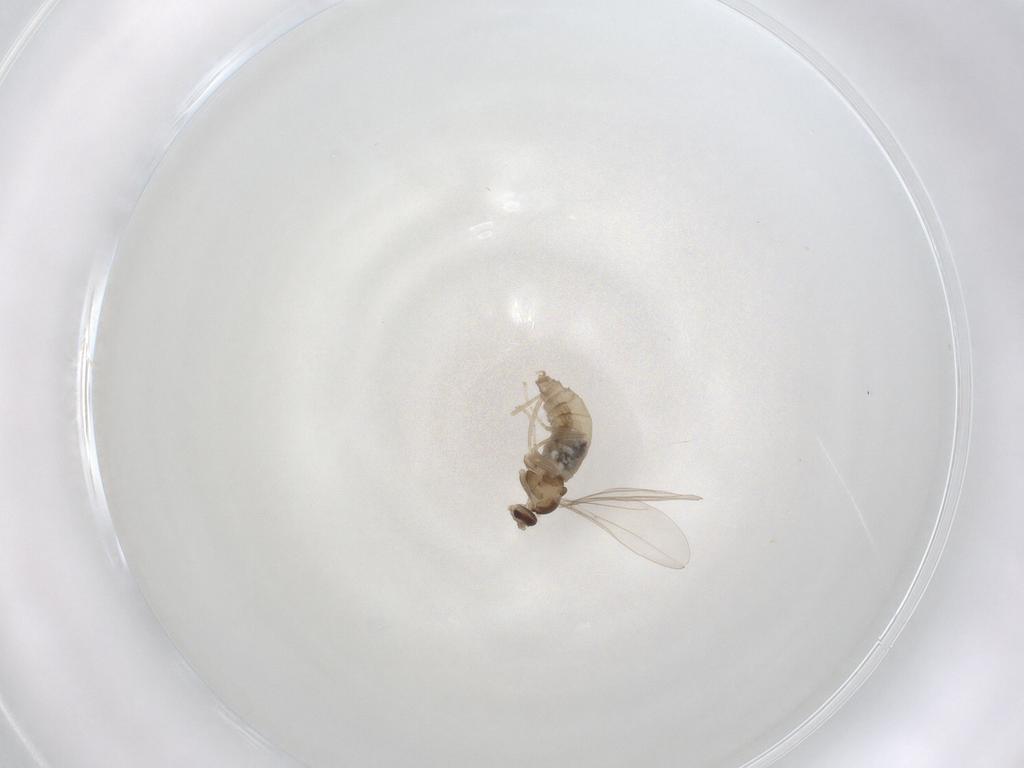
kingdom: Animalia
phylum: Arthropoda
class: Insecta
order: Diptera
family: Cecidomyiidae
